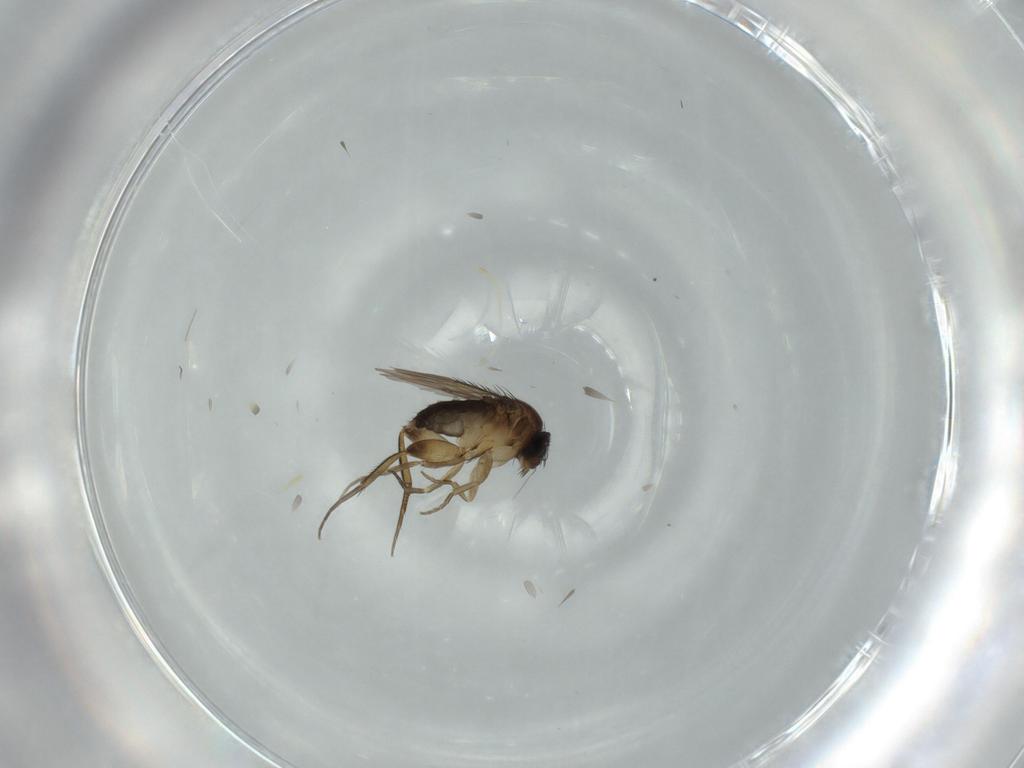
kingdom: Animalia
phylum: Arthropoda
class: Insecta
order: Diptera
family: Phoridae
